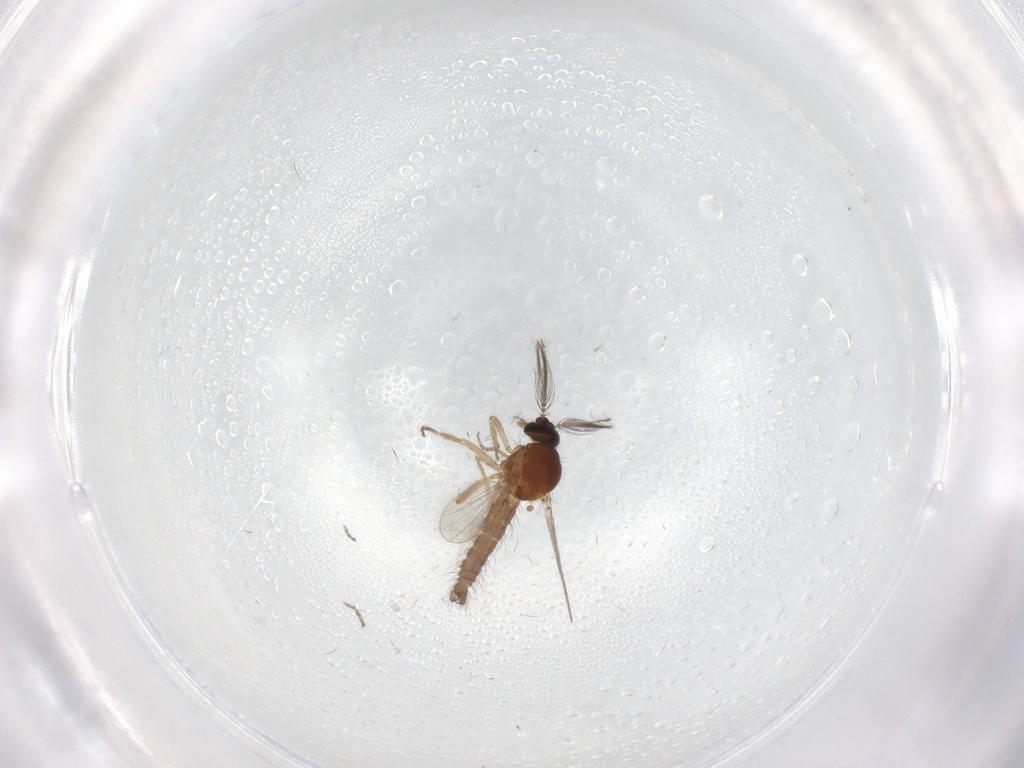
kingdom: Animalia
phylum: Arthropoda
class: Insecta
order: Diptera
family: Ceratopogonidae
